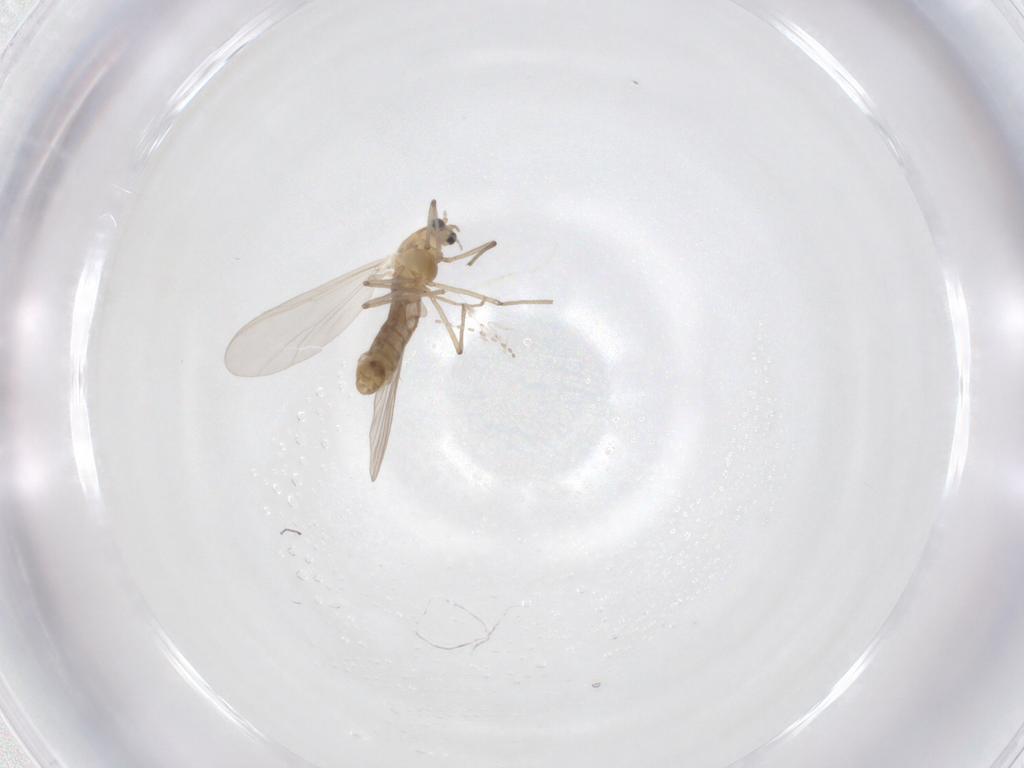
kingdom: Animalia
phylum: Arthropoda
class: Insecta
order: Diptera
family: Chironomidae
